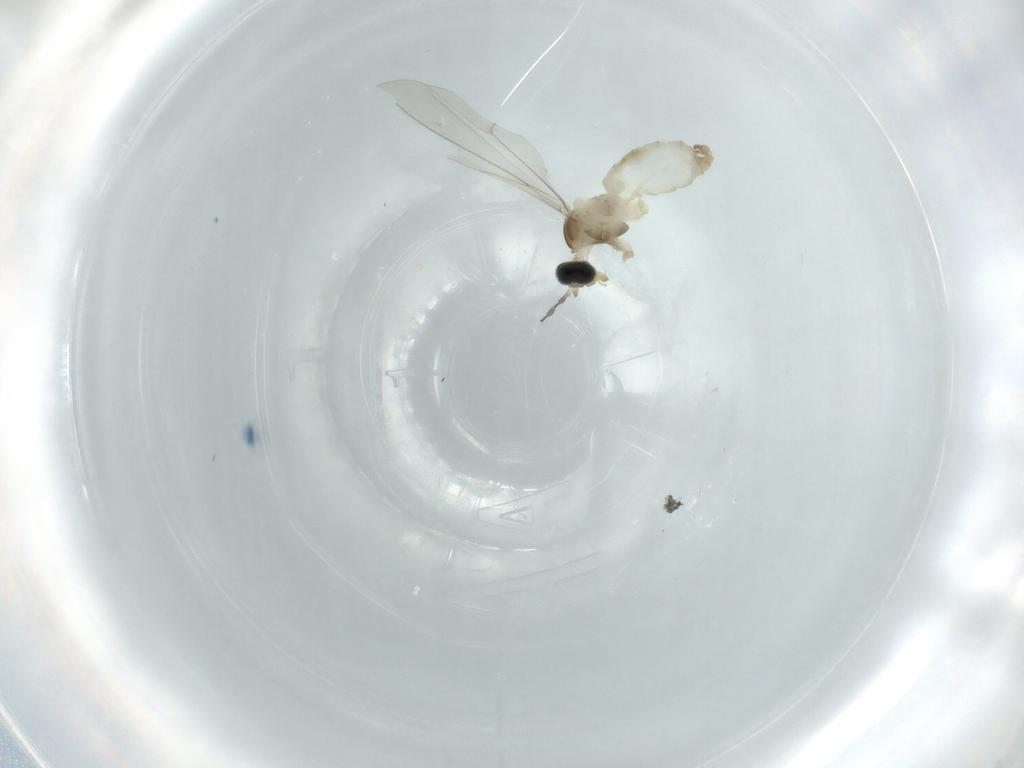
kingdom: Animalia
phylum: Arthropoda
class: Insecta
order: Diptera
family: Cecidomyiidae
